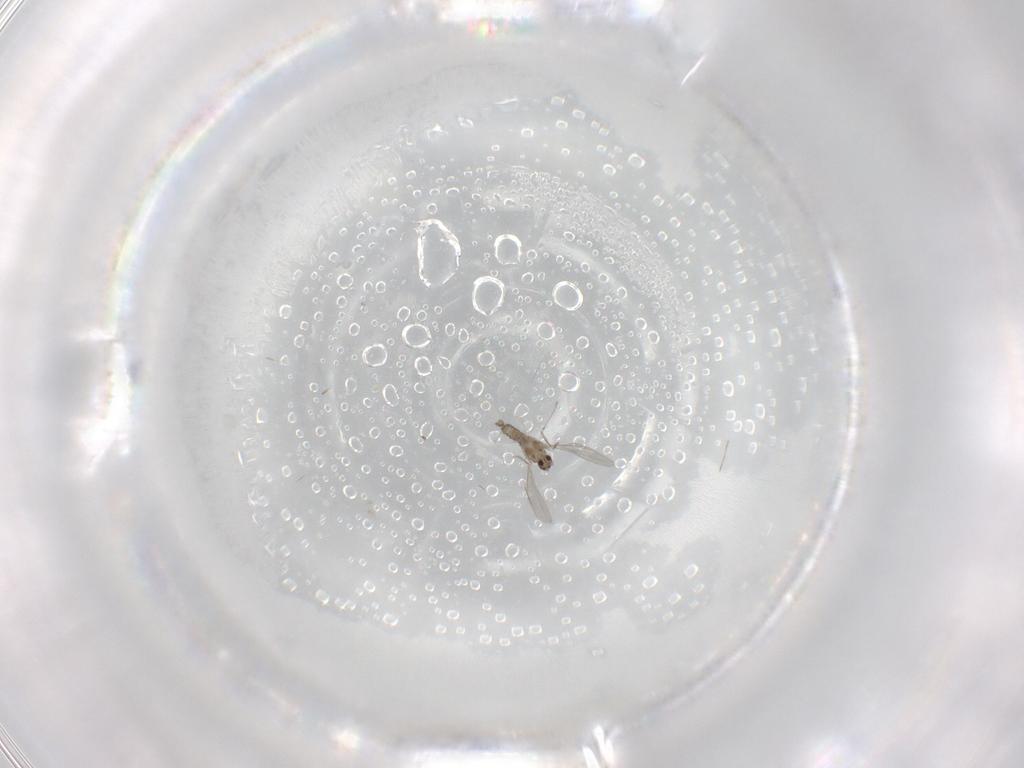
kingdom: Animalia
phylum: Arthropoda
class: Insecta
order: Diptera
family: Cecidomyiidae
